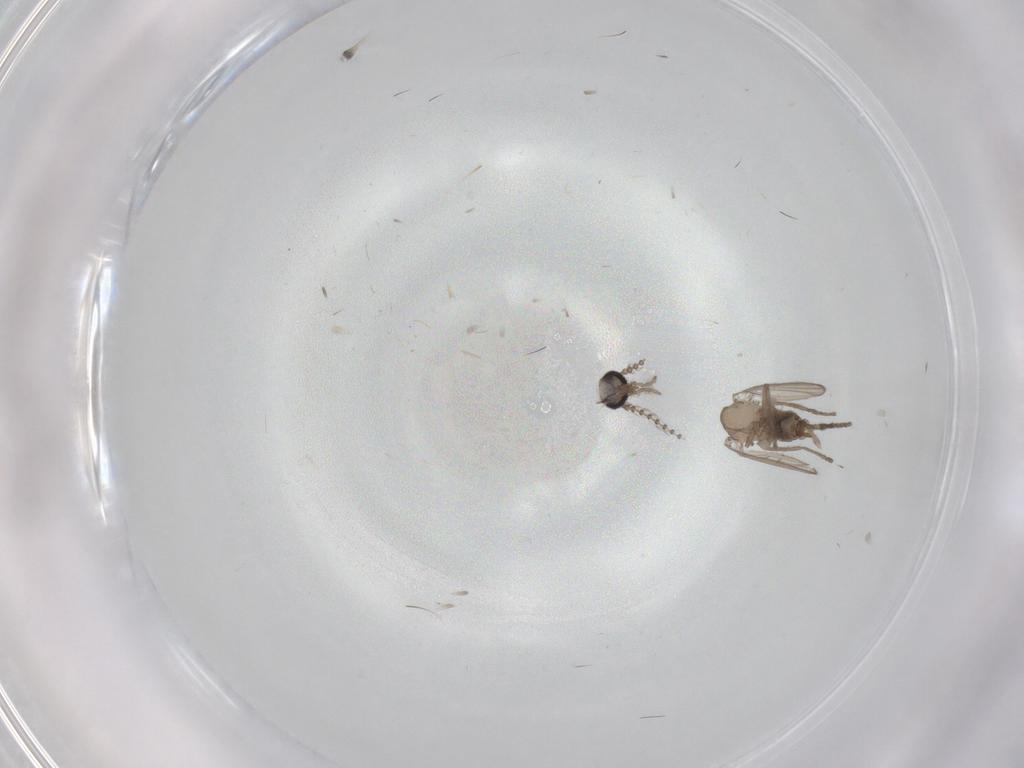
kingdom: Animalia
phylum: Arthropoda
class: Insecta
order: Diptera
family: Psychodidae
